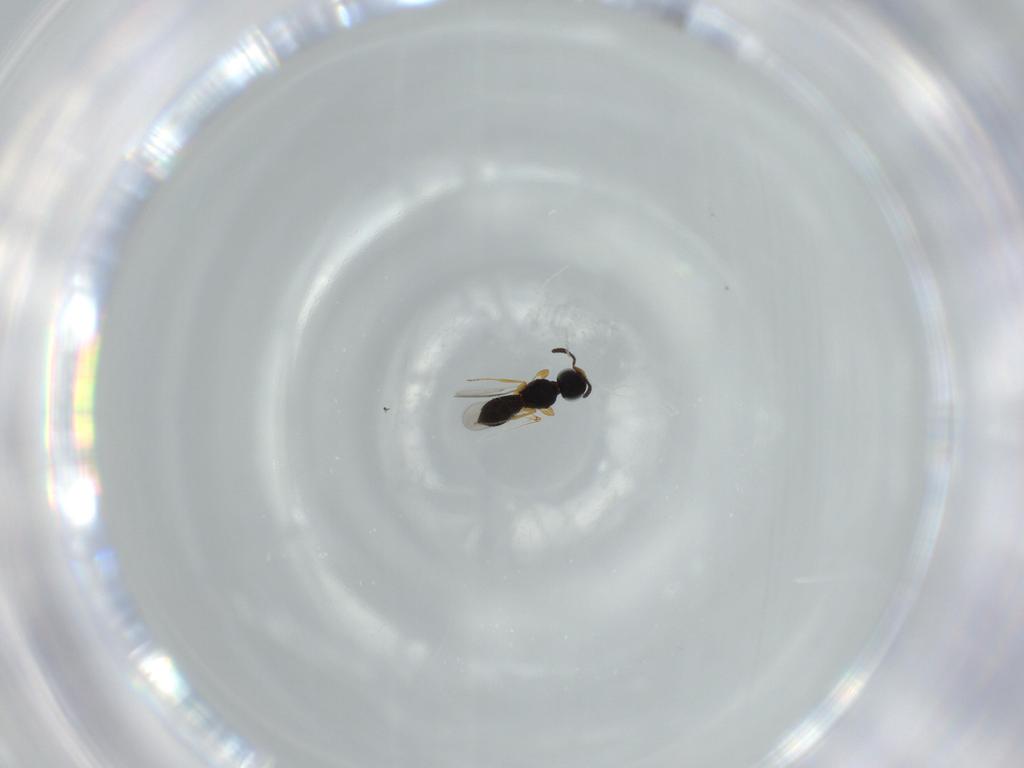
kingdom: Animalia
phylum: Arthropoda
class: Insecta
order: Hymenoptera
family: Scelionidae
